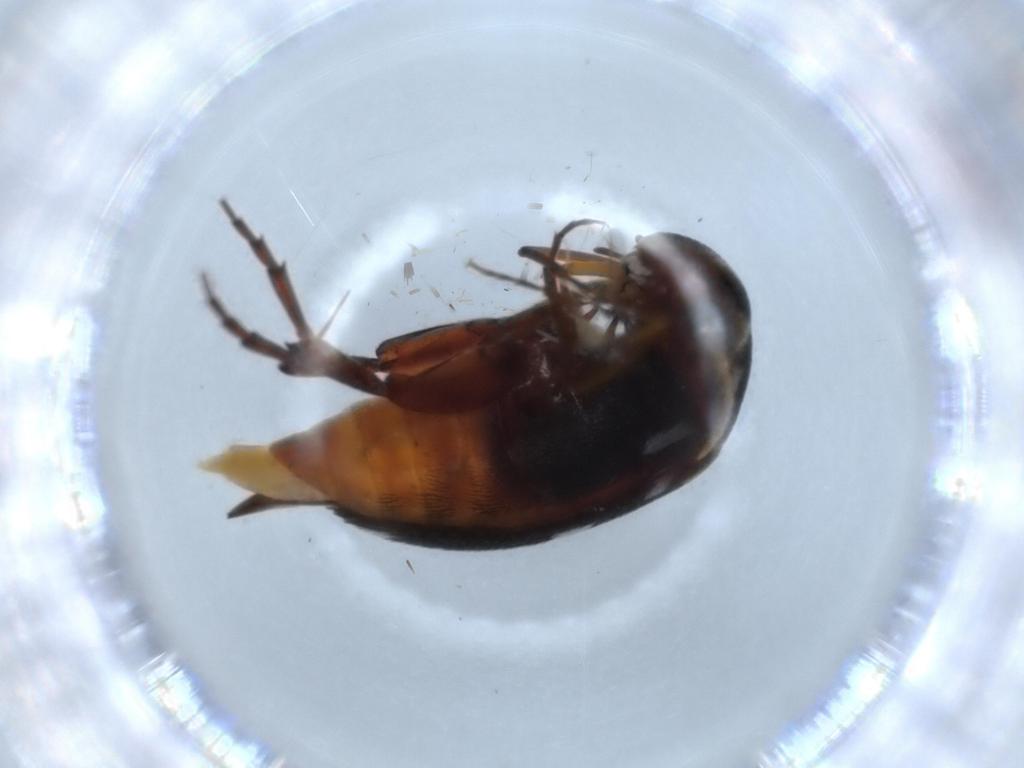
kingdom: Animalia
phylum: Arthropoda
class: Insecta
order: Coleoptera
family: Mordellidae
